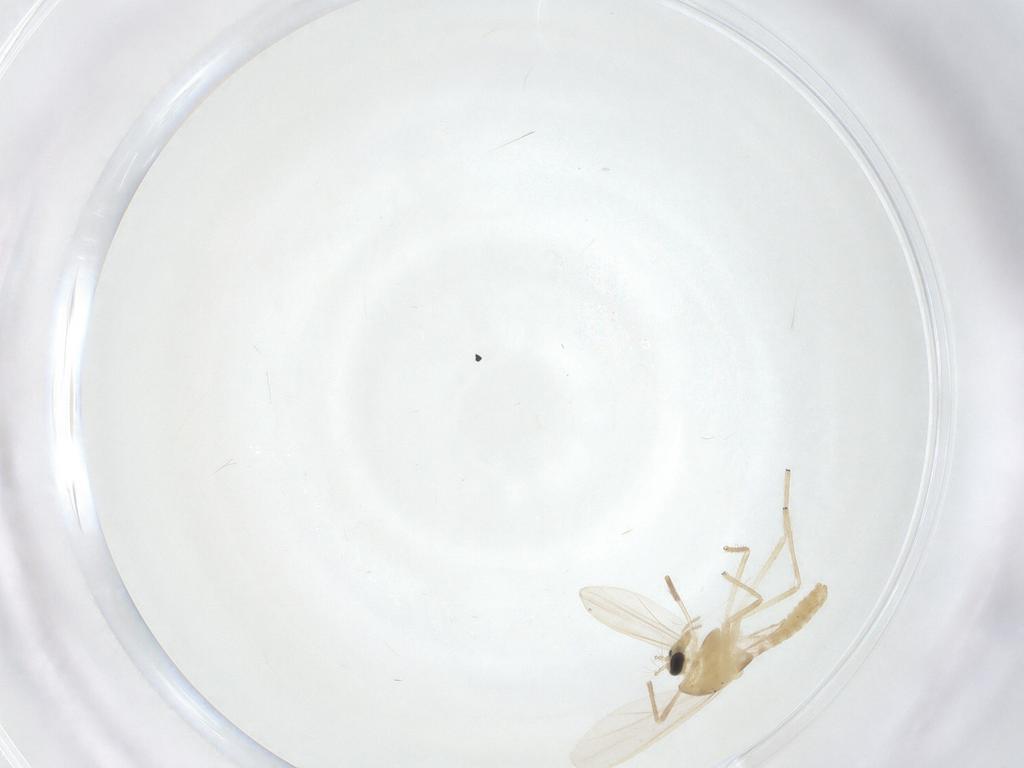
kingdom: Animalia
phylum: Arthropoda
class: Insecta
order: Diptera
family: Chironomidae
